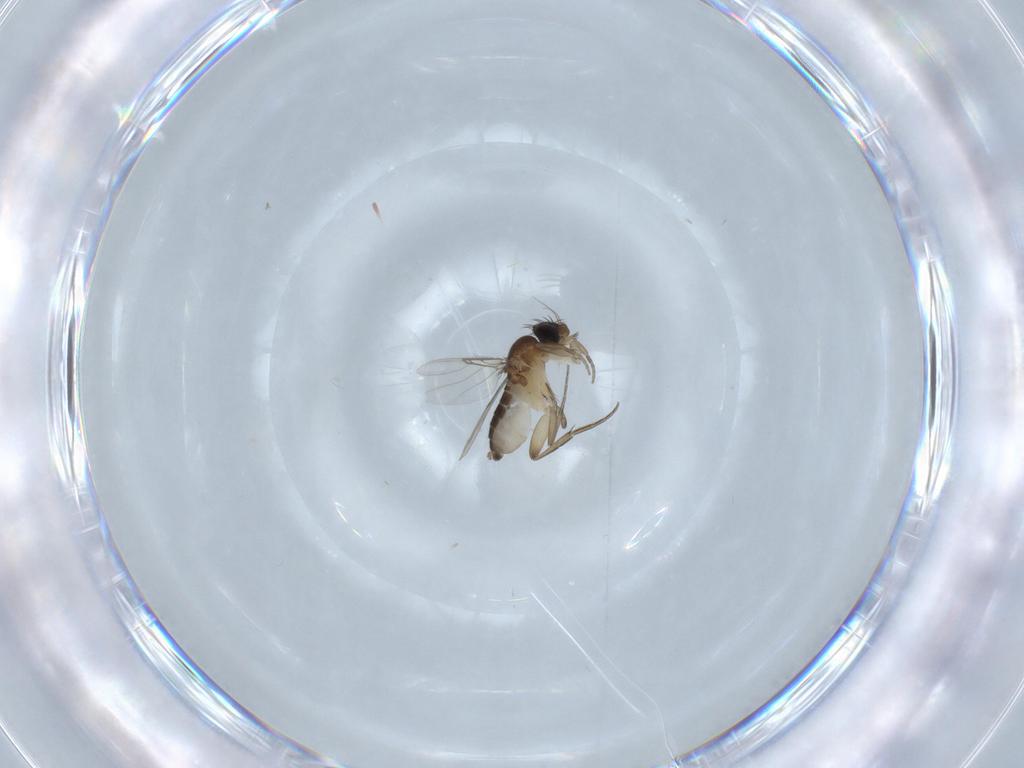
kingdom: Animalia
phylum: Arthropoda
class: Insecta
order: Diptera
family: Phoridae
